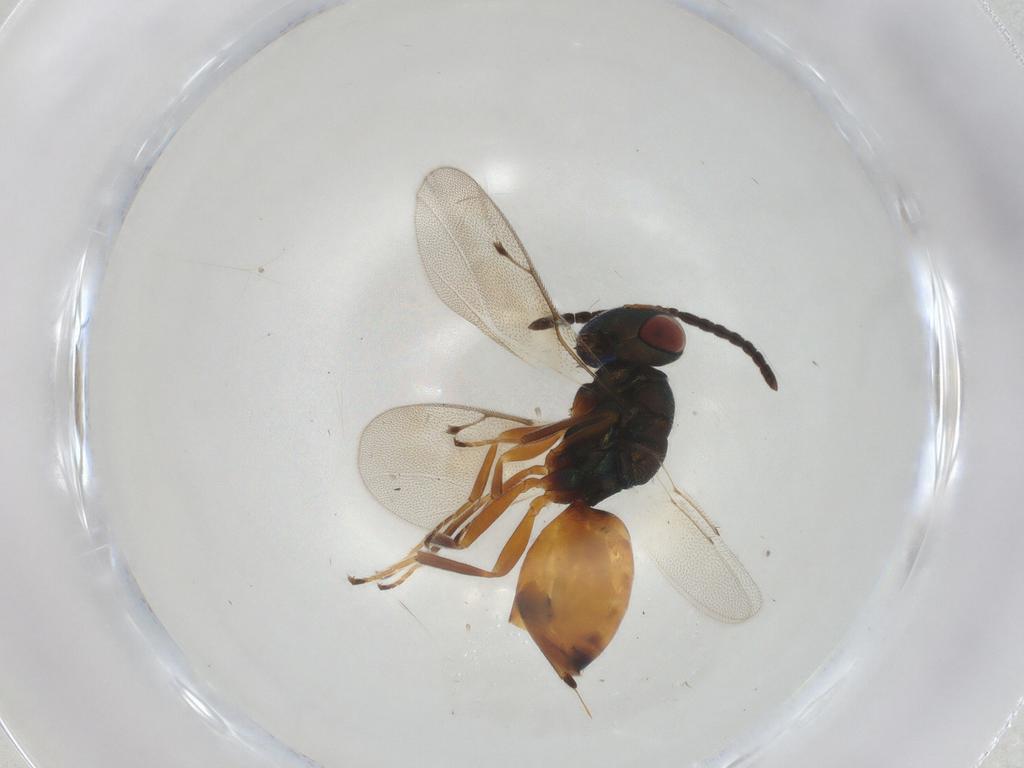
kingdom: Animalia
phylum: Arthropoda
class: Insecta
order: Hymenoptera
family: Pteromalidae
